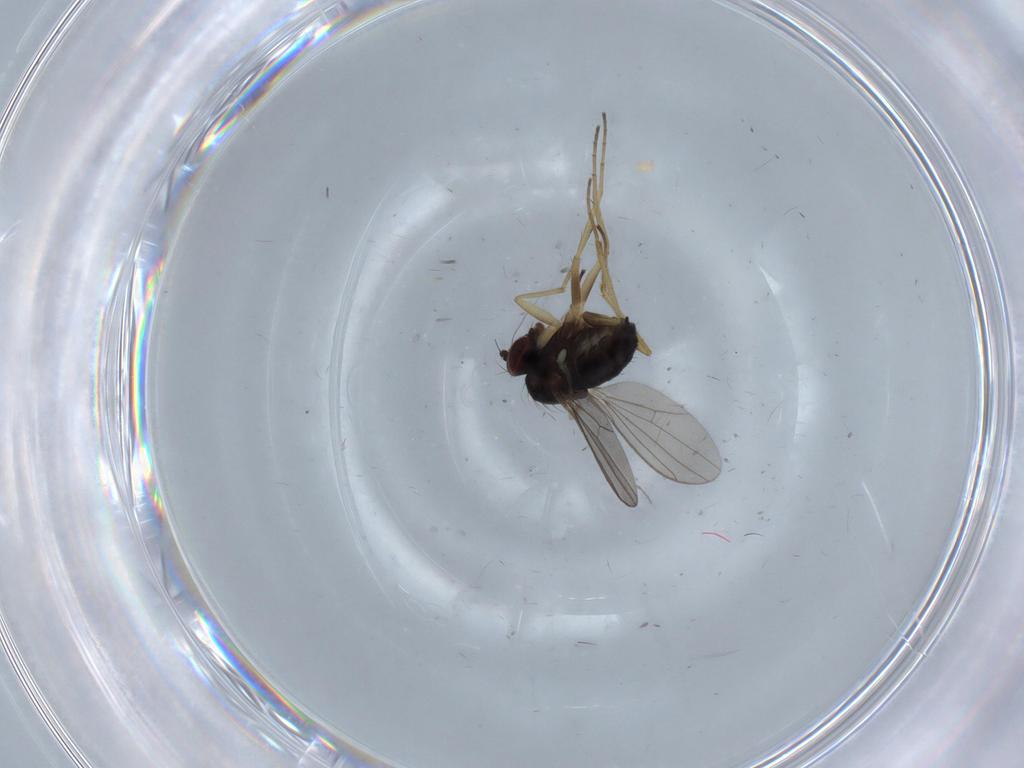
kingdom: Animalia
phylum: Arthropoda
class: Insecta
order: Diptera
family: Dolichopodidae
